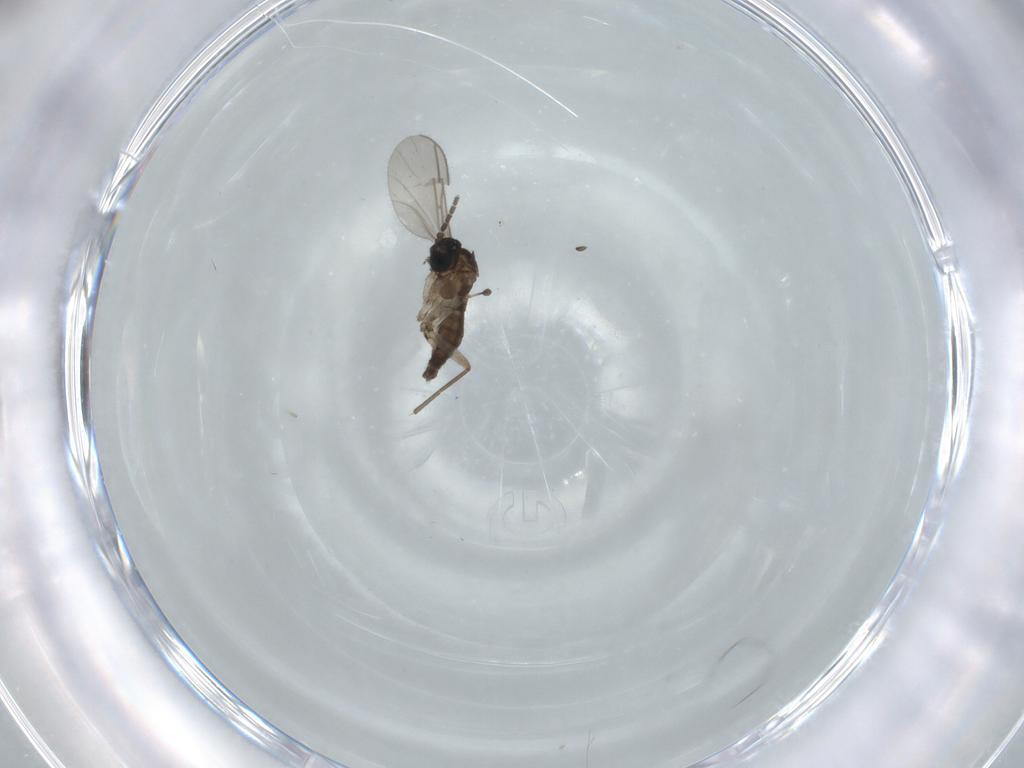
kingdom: Animalia
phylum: Arthropoda
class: Insecta
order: Diptera
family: Cecidomyiidae
